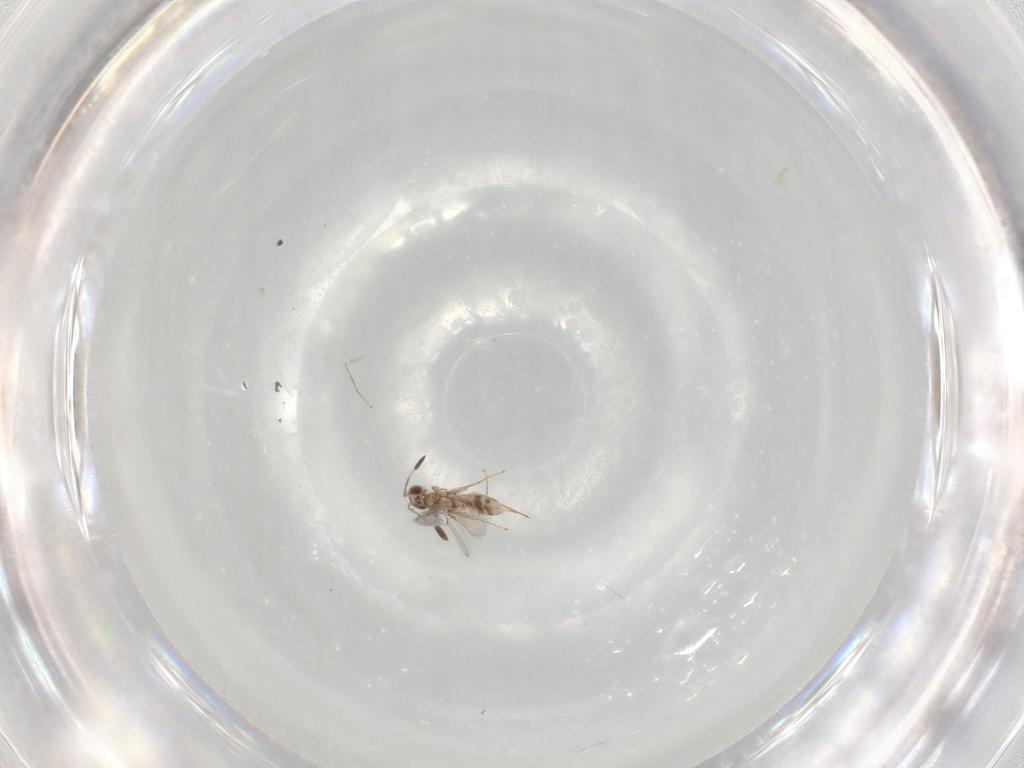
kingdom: Animalia
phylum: Arthropoda
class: Insecta
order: Hymenoptera
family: Mymaridae
